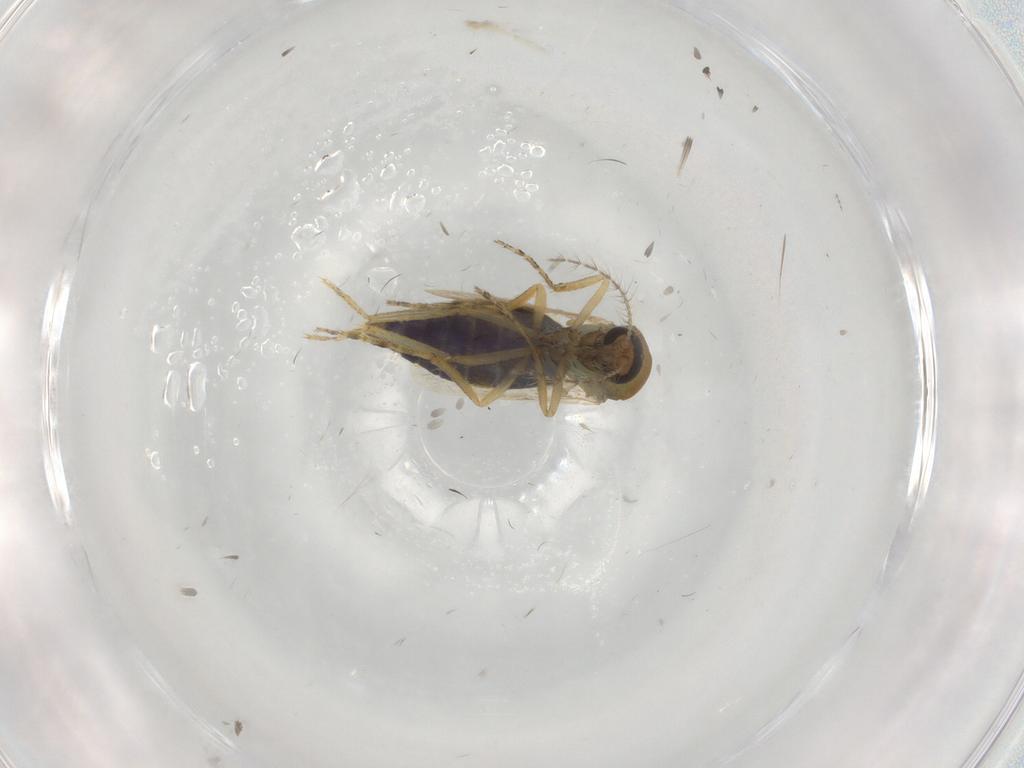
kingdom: Animalia
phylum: Arthropoda
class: Insecta
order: Diptera
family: Ceratopogonidae
